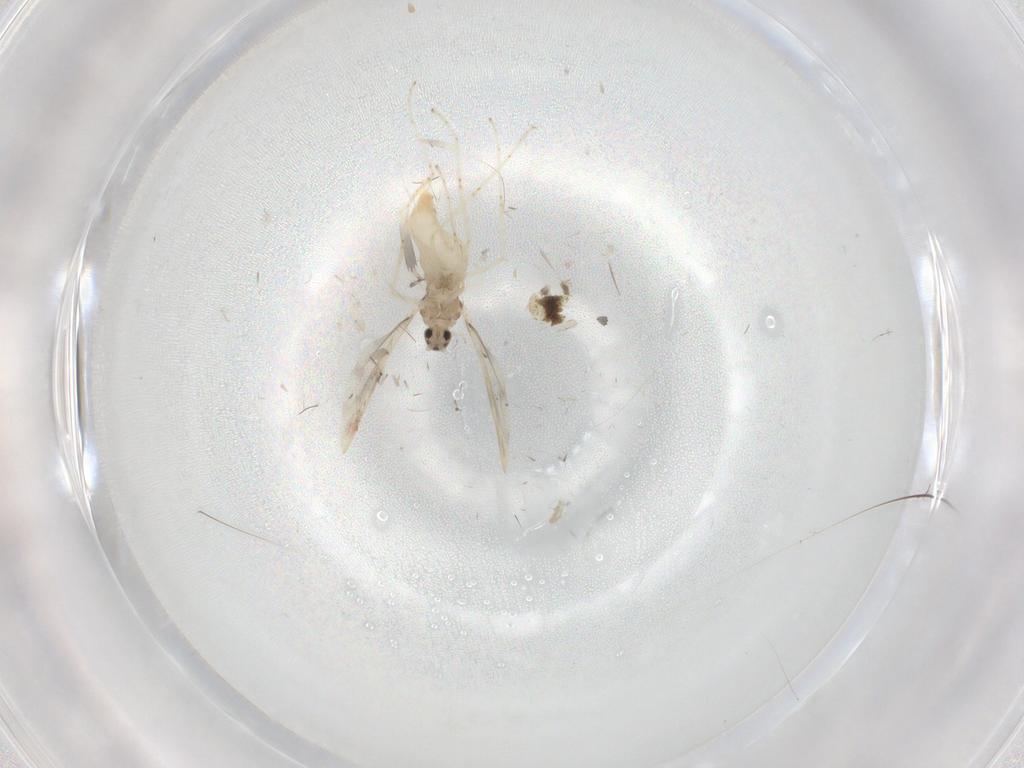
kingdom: Animalia
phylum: Arthropoda
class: Insecta
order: Diptera
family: Cecidomyiidae
